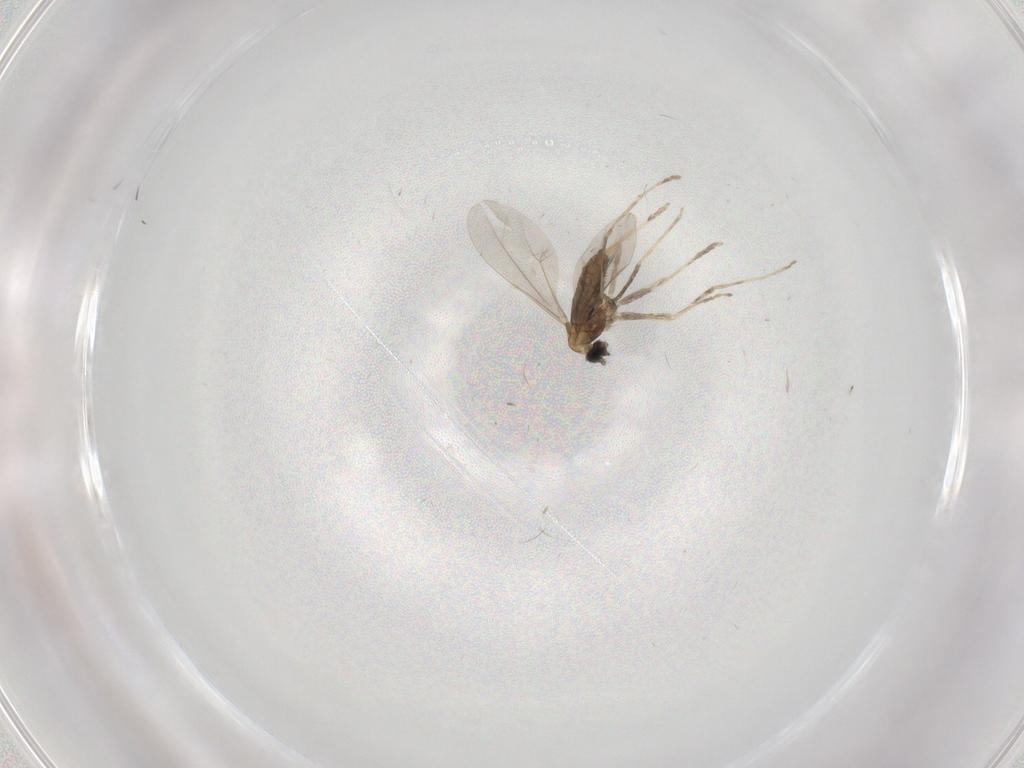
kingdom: Animalia
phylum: Arthropoda
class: Insecta
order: Diptera
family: Cecidomyiidae
